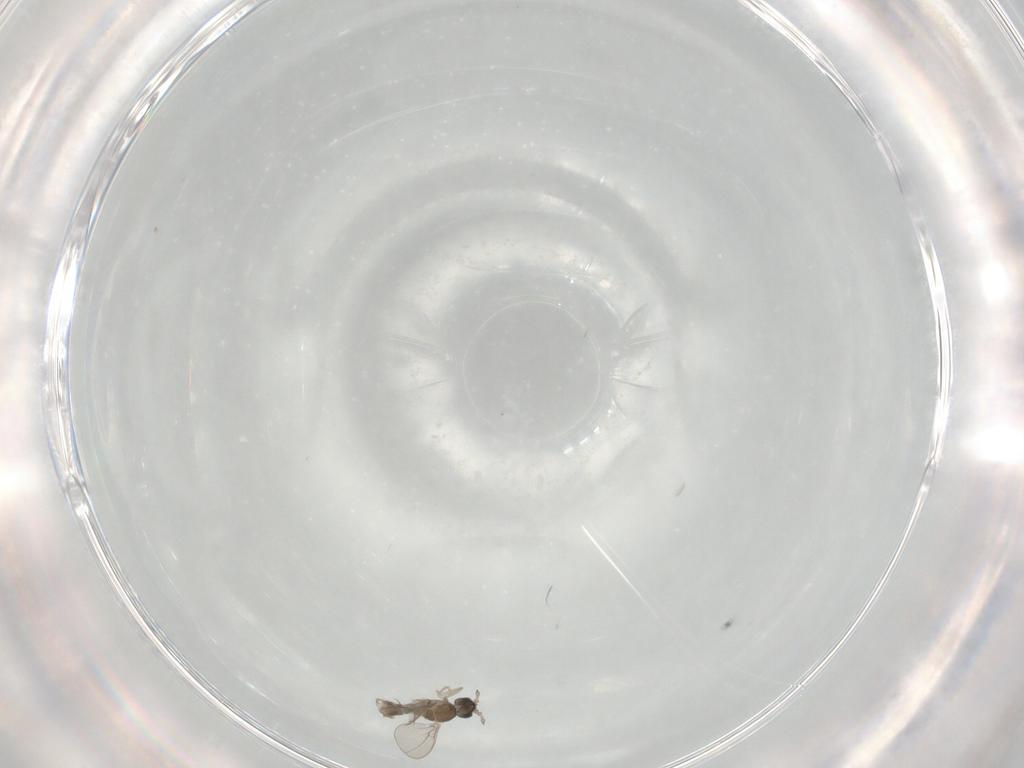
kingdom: Animalia
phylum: Arthropoda
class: Insecta
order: Diptera
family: Cecidomyiidae
